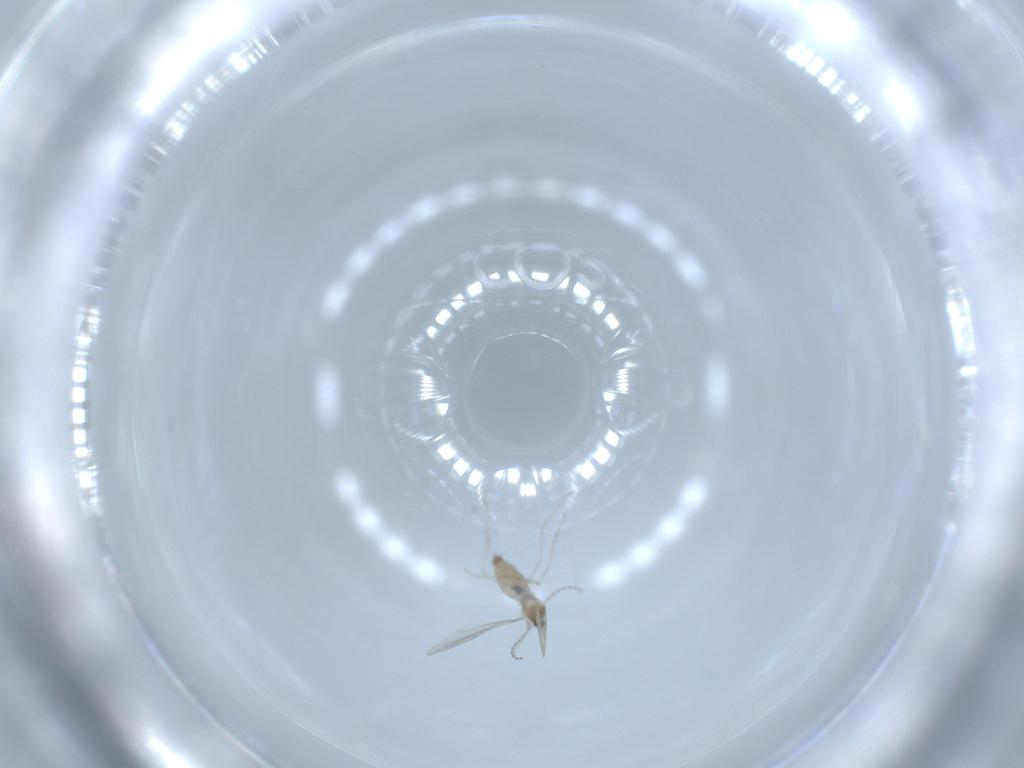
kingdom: Animalia
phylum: Arthropoda
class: Insecta
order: Diptera
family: Cecidomyiidae
